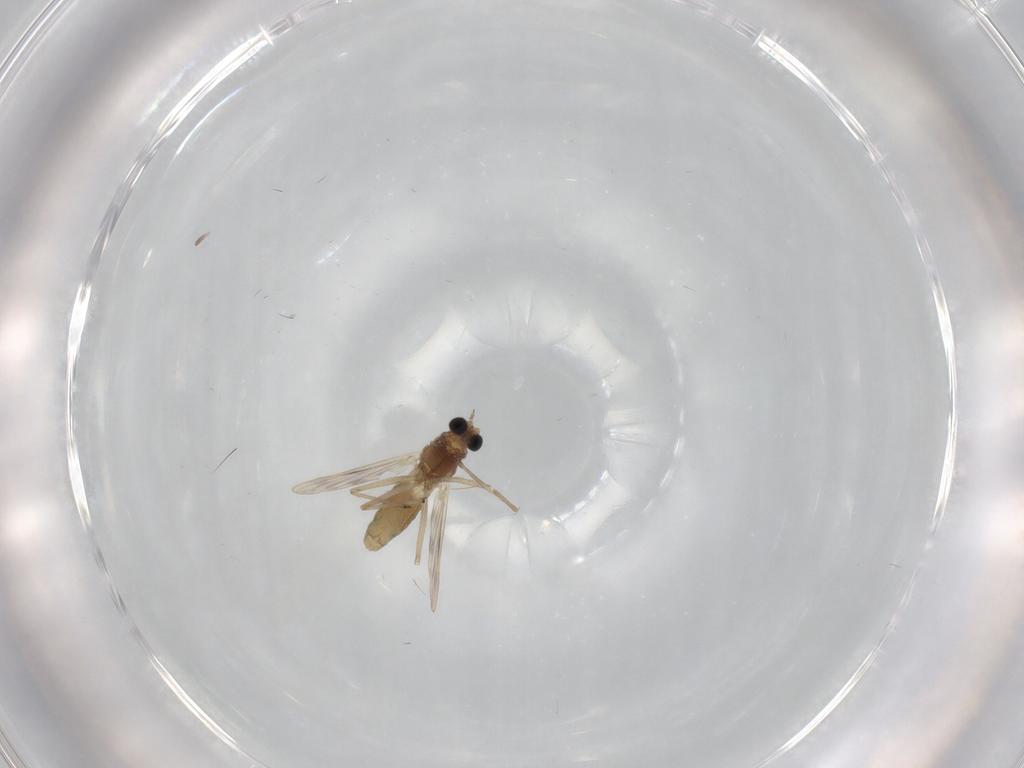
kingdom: Animalia
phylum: Arthropoda
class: Insecta
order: Diptera
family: Chironomidae
